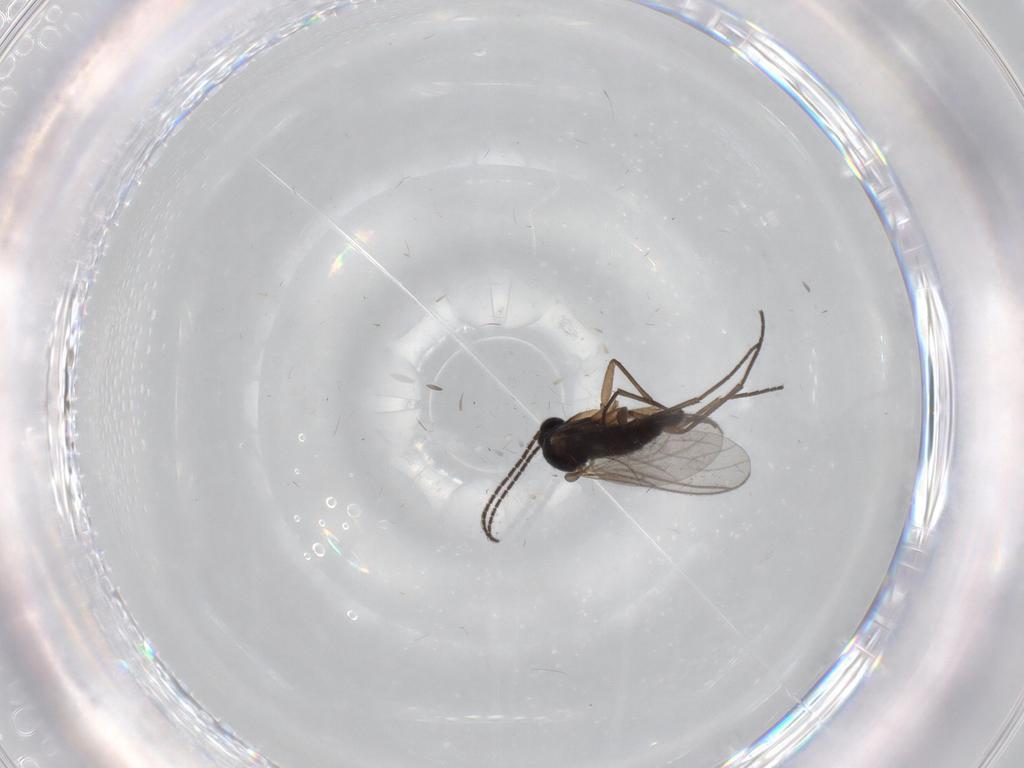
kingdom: Animalia
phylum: Arthropoda
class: Insecta
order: Diptera
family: Sciaridae
